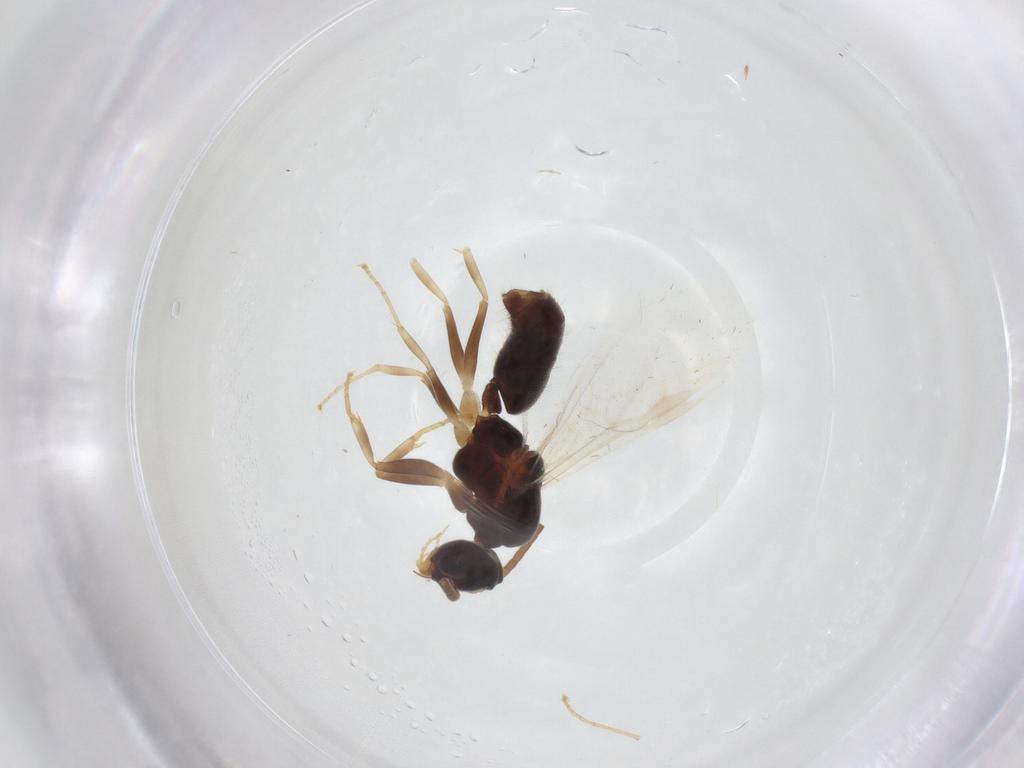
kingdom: Animalia
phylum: Arthropoda
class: Insecta
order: Hymenoptera
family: Formicidae
